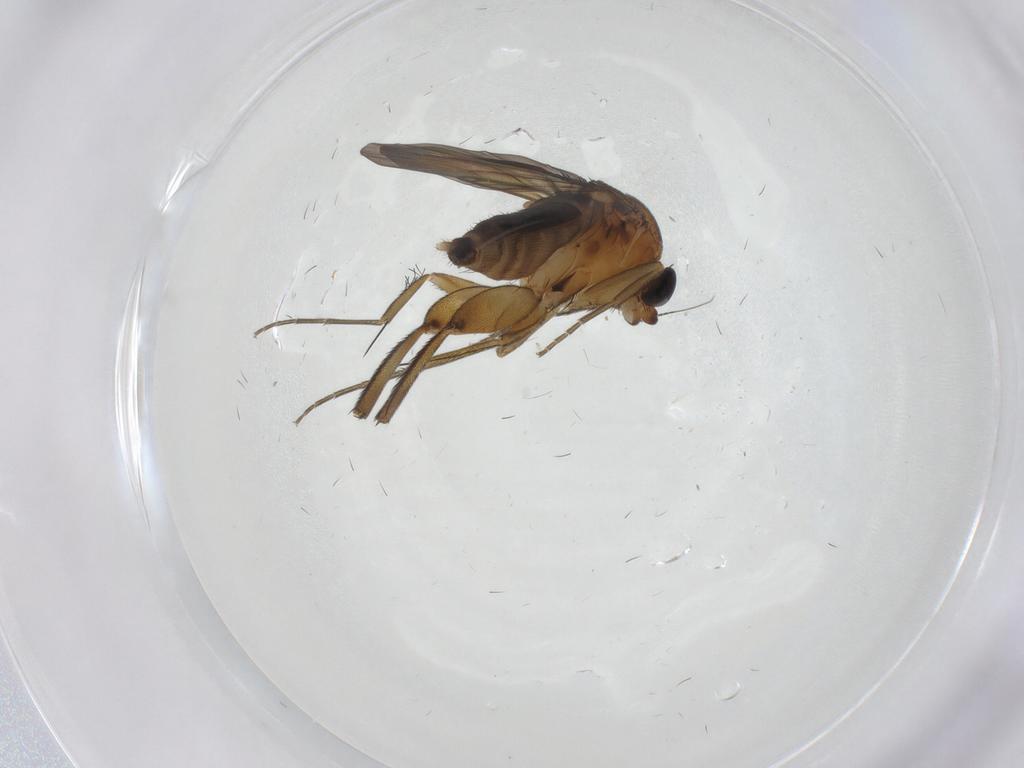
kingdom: Animalia
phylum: Arthropoda
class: Insecta
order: Diptera
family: Phoridae
